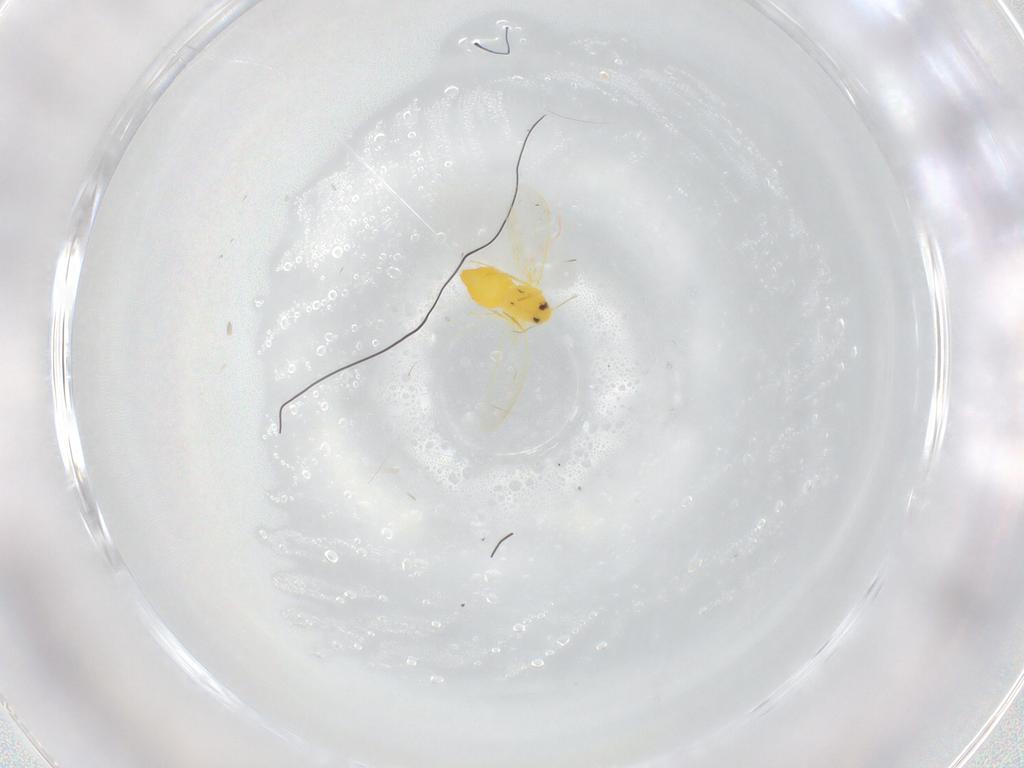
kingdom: Animalia
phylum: Arthropoda
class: Insecta
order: Hemiptera
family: Aleyrodidae
